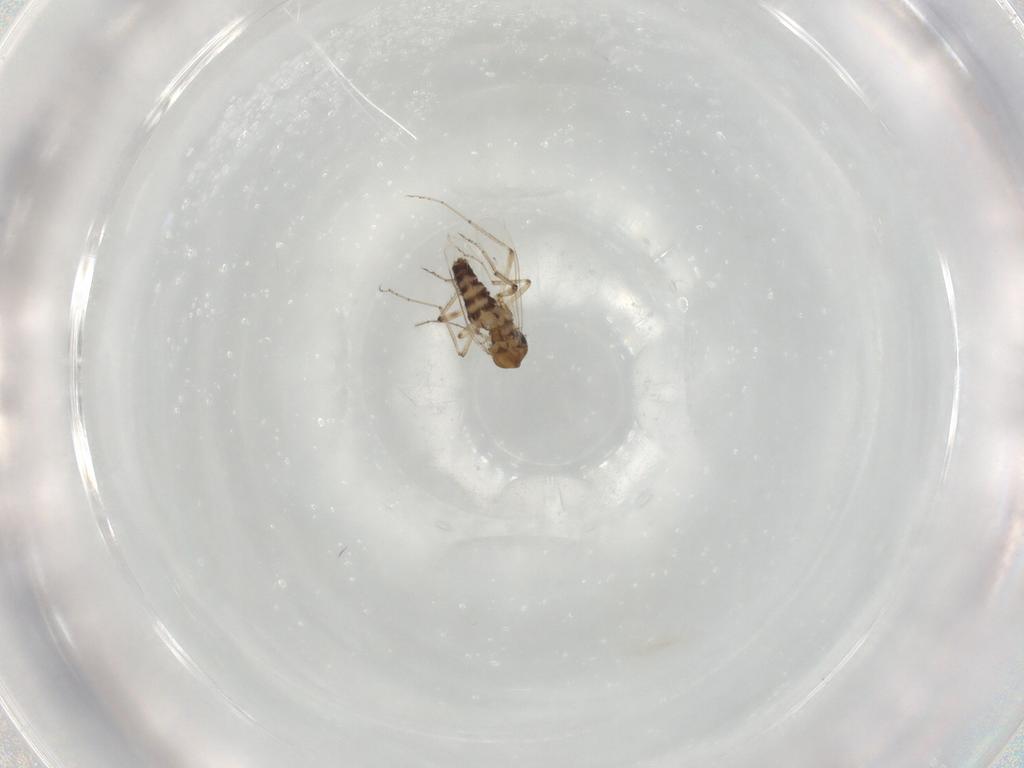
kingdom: Animalia
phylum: Arthropoda
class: Insecta
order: Diptera
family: Ceratopogonidae
